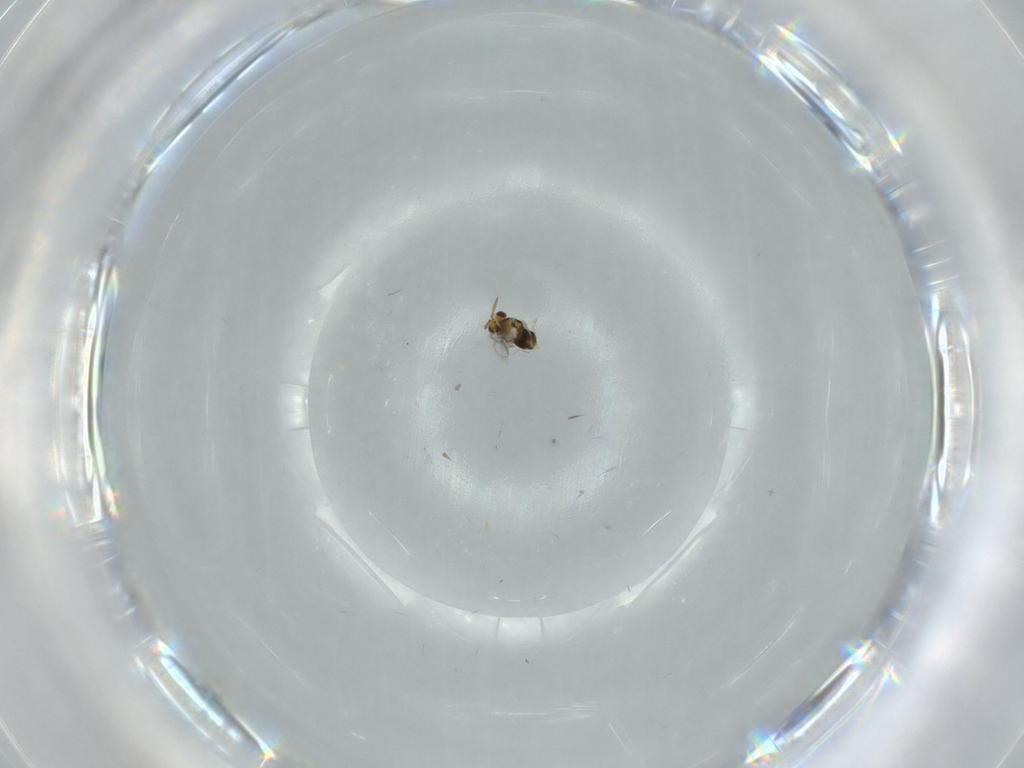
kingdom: Animalia
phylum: Arthropoda
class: Insecta
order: Hymenoptera
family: Aphelinidae
